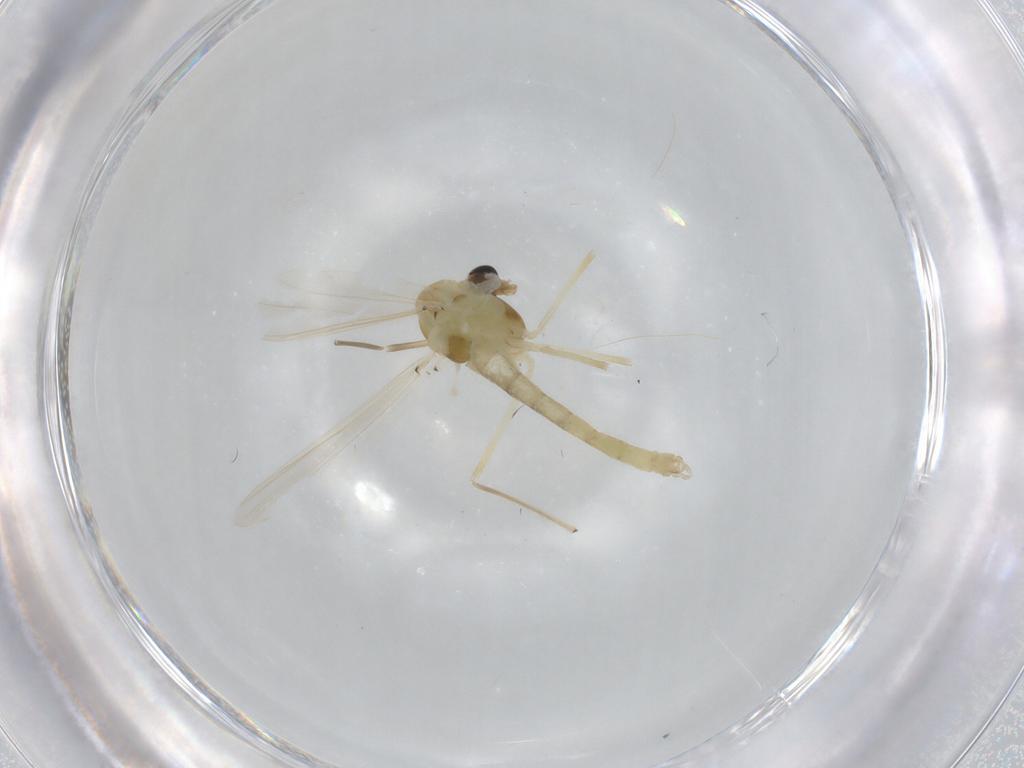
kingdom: Animalia
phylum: Arthropoda
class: Insecta
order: Diptera
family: Chironomidae
